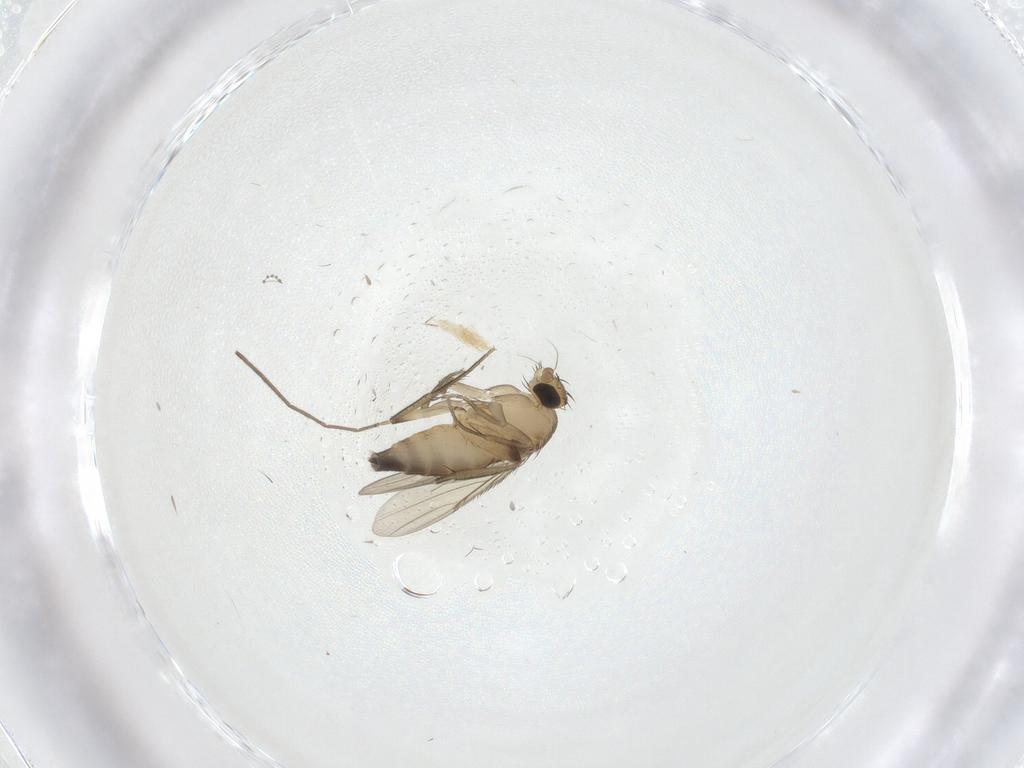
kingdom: Animalia
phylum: Arthropoda
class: Insecta
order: Diptera
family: Phoridae
